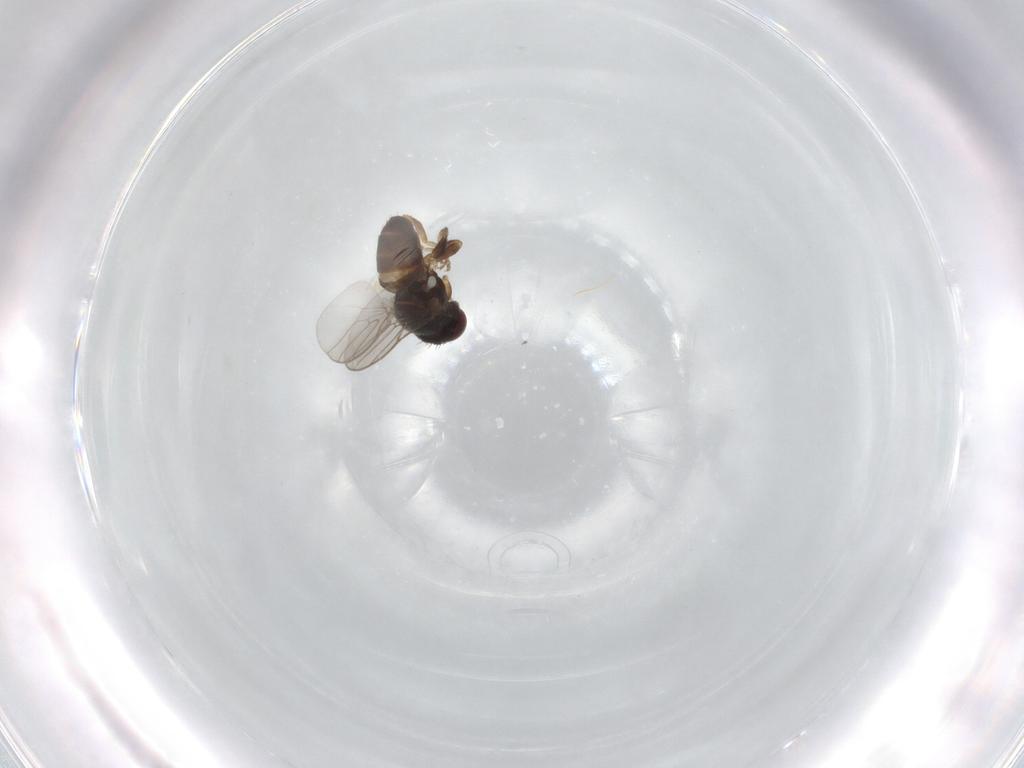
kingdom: Animalia
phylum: Arthropoda
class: Insecta
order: Diptera
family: Chloropidae
